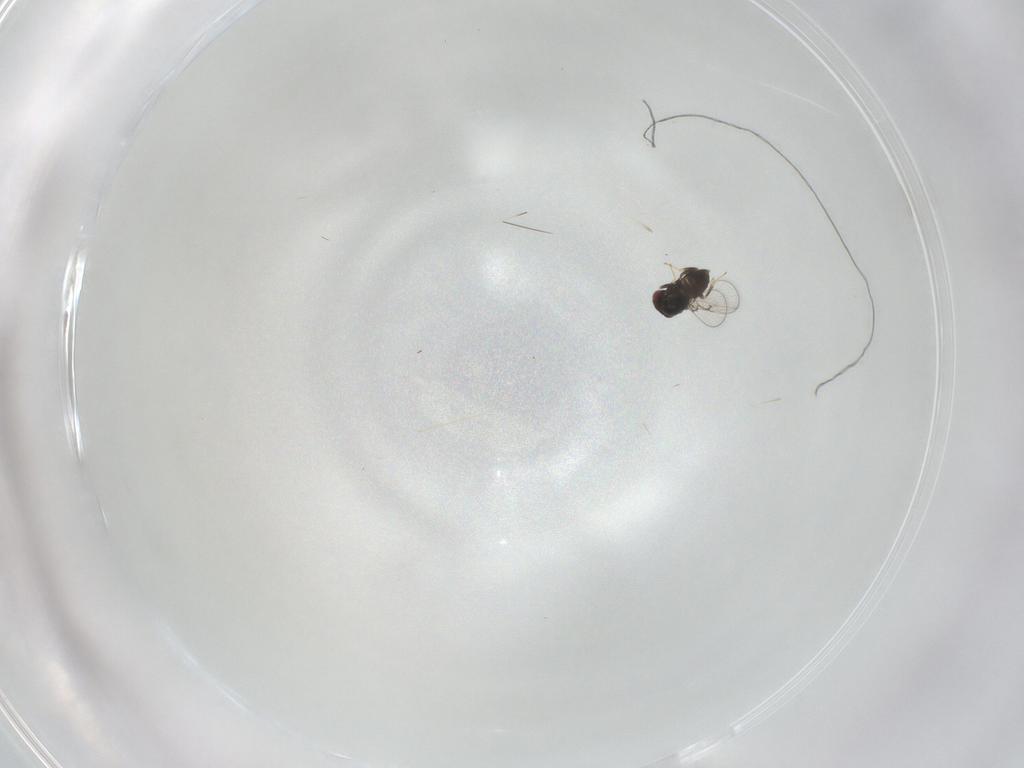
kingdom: Animalia
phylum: Arthropoda
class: Insecta
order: Hymenoptera
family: Trichogrammatidae
